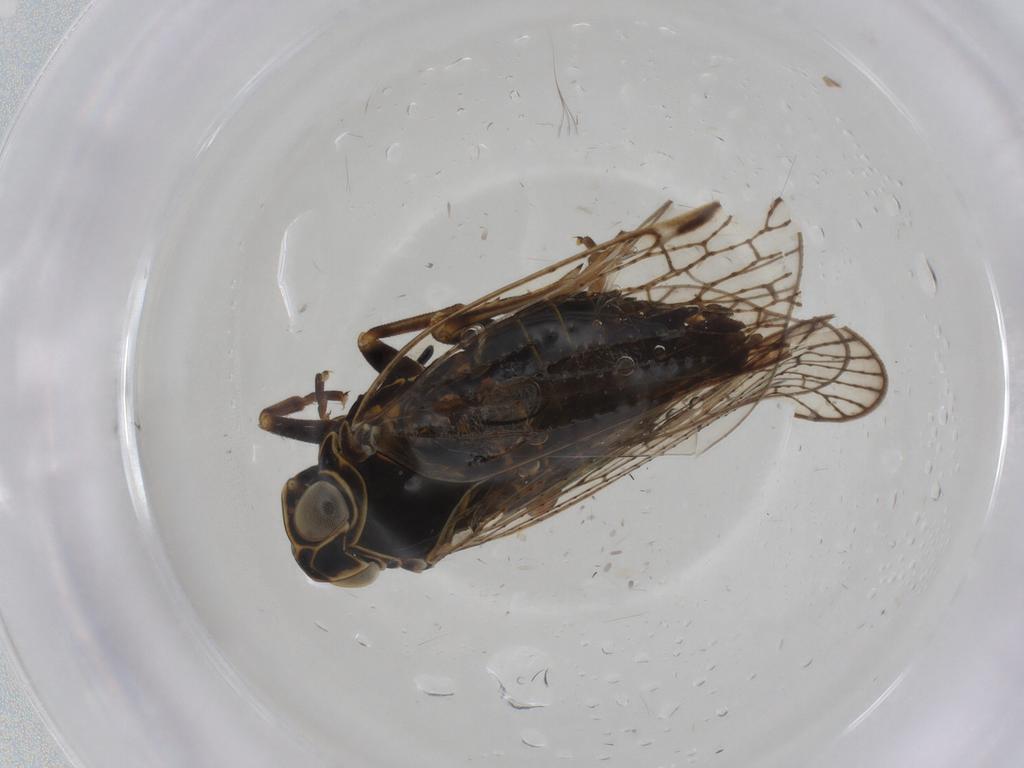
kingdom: Animalia
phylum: Arthropoda
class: Insecta
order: Hemiptera
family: Cixiidae
